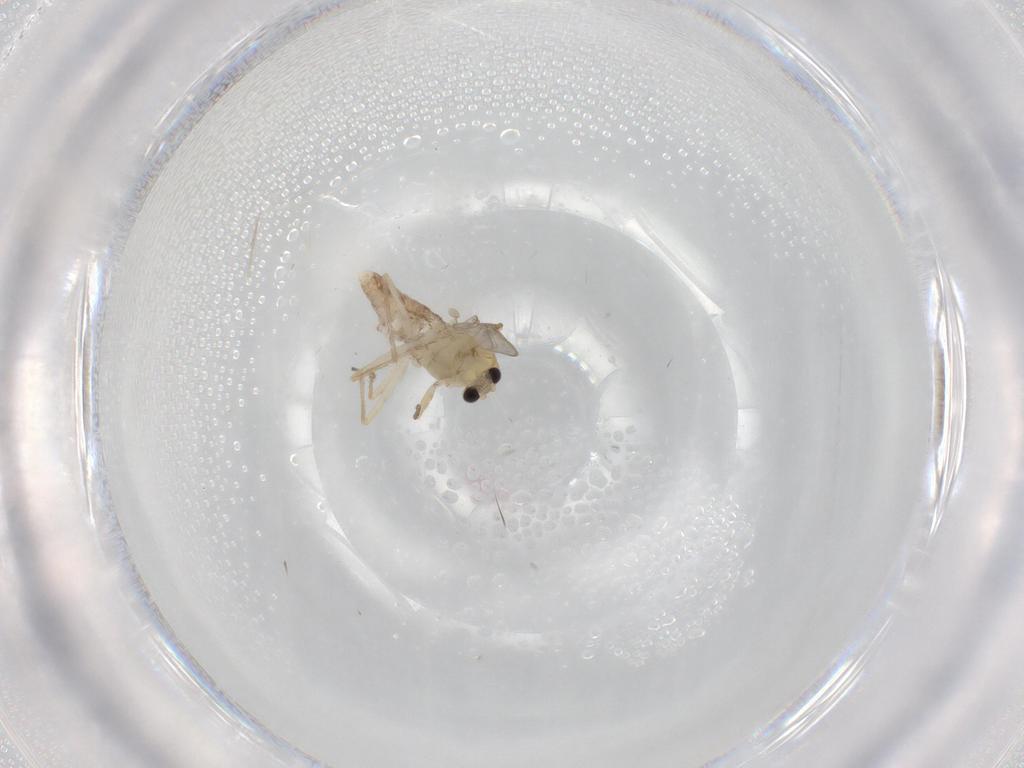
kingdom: Animalia
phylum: Arthropoda
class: Insecta
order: Diptera
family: Chironomidae
